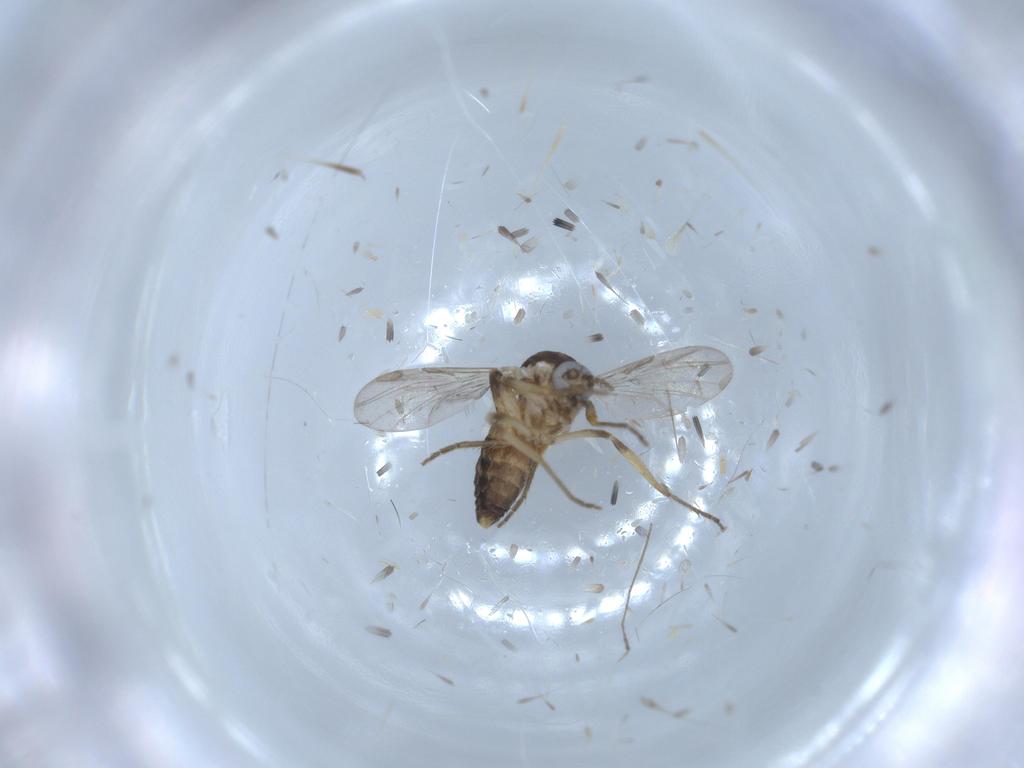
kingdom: Animalia
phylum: Arthropoda
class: Insecta
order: Diptera
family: Ceratopogonidae
